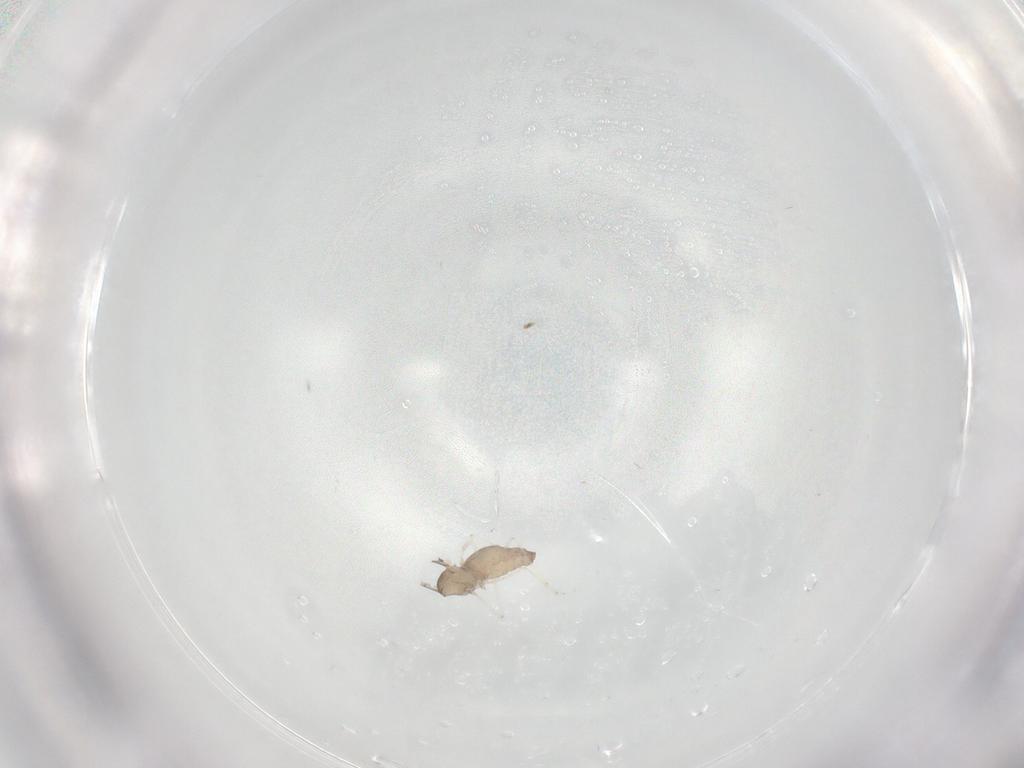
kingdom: Animalia
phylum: Arthropoda
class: Insecta
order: Diptera
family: Cecidomyiidae
